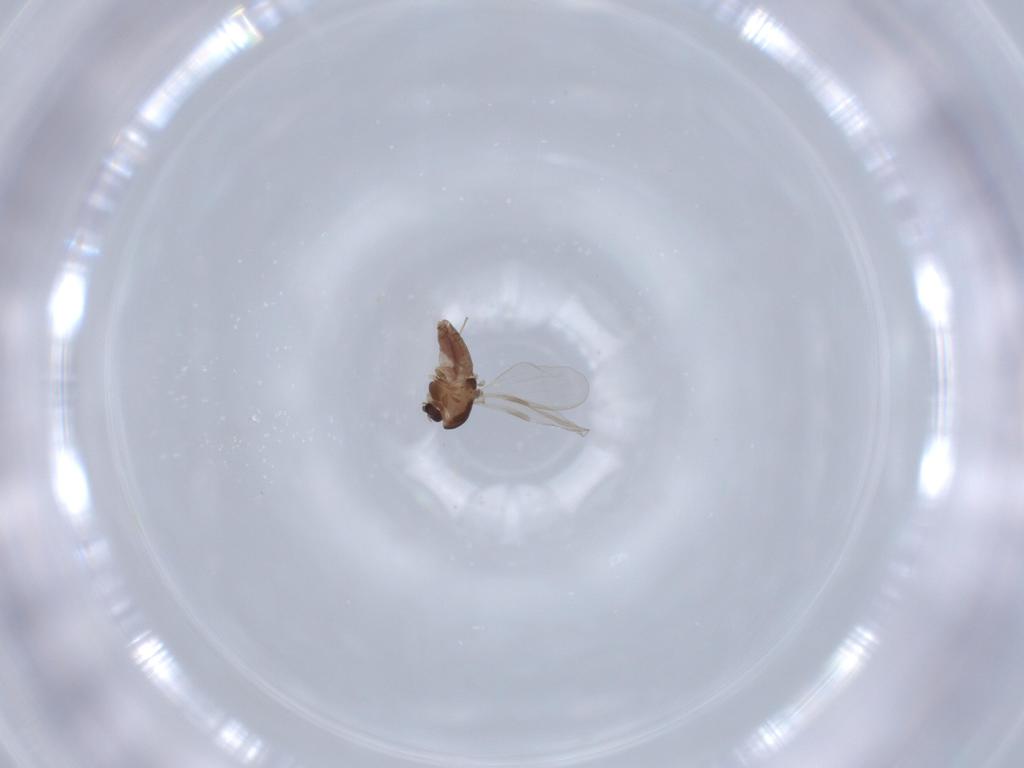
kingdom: Animalia
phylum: Arthropoda
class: Insecta
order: Diptera
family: Chironomidae
